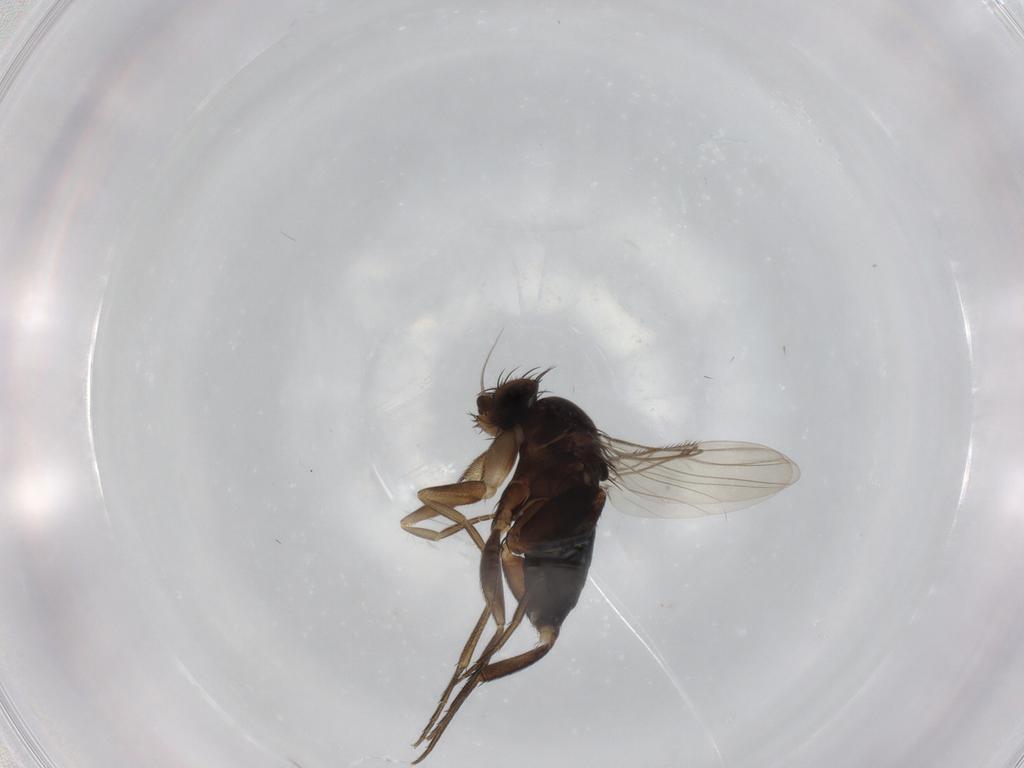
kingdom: Animalia
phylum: Arthropoda
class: Insecta
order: Diptera
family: Phoridae
